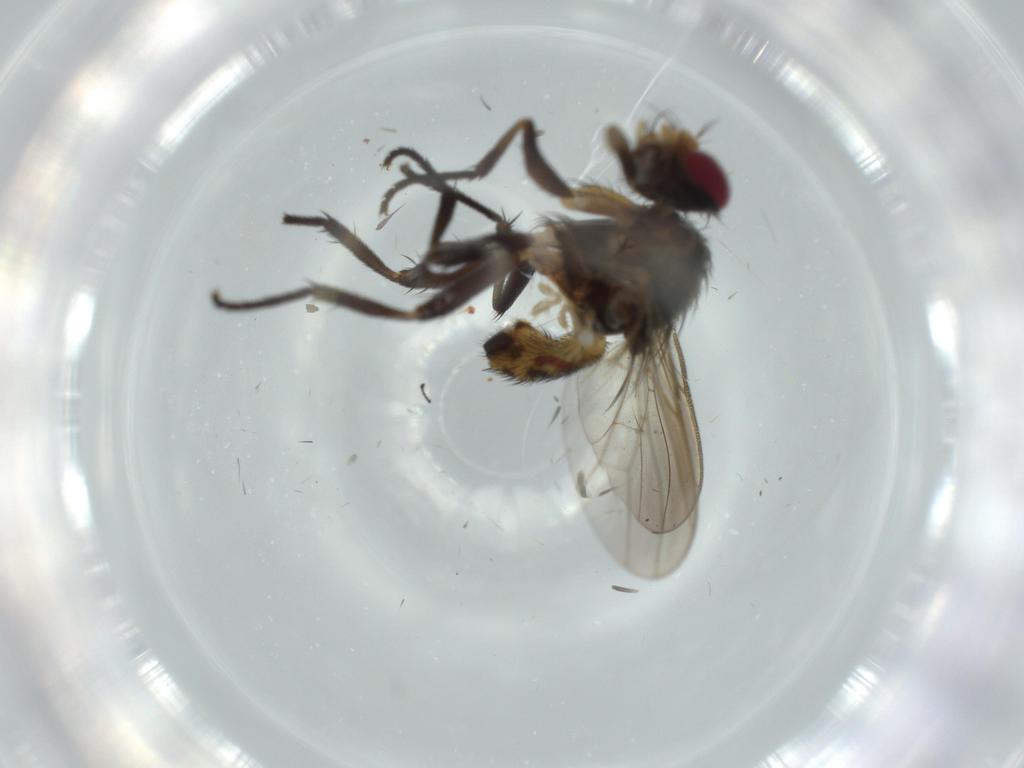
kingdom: Animalia
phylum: Arthropoda
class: Insecta
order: Diptera
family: Anthomyiidae
